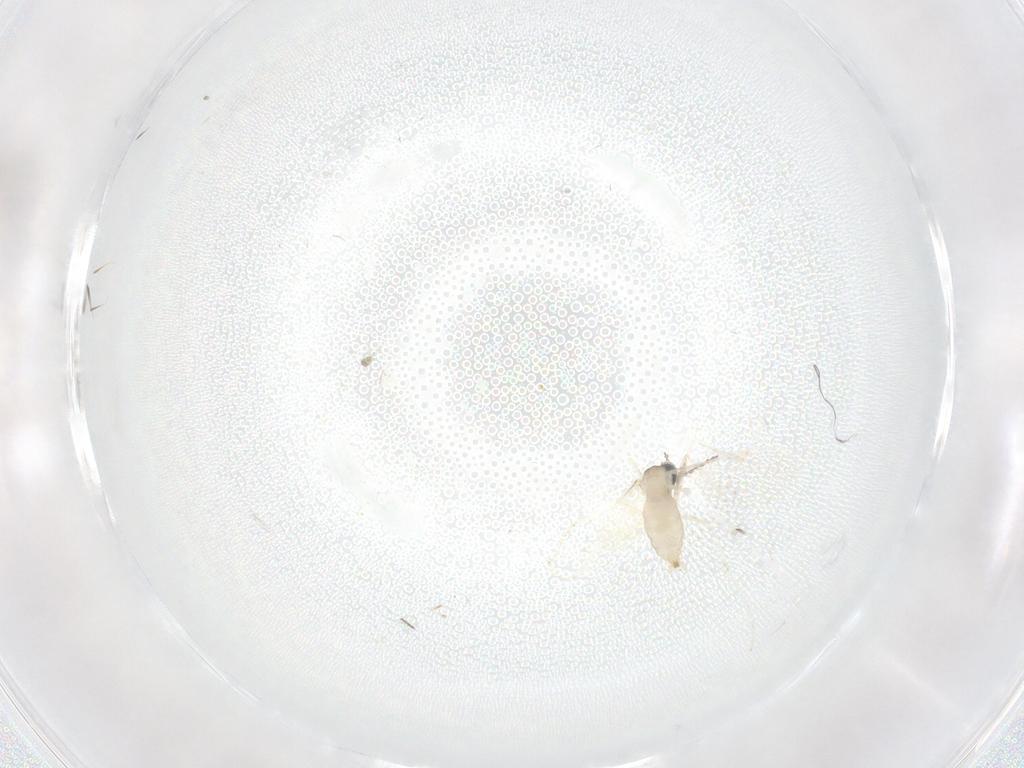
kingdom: Animalia
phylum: Arthropoda
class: Insecta
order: Diptera
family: Cecidomyiidae
